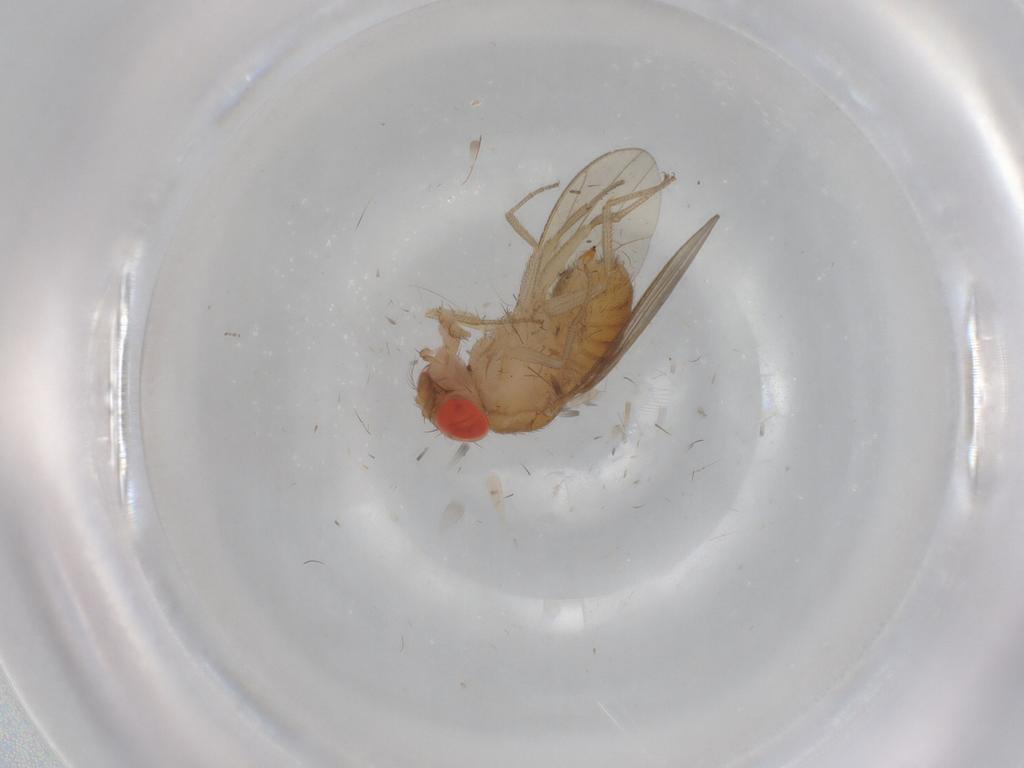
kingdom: Animalia
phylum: Arthropoda
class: Insecta
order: Diptera
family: Drosophilidae
